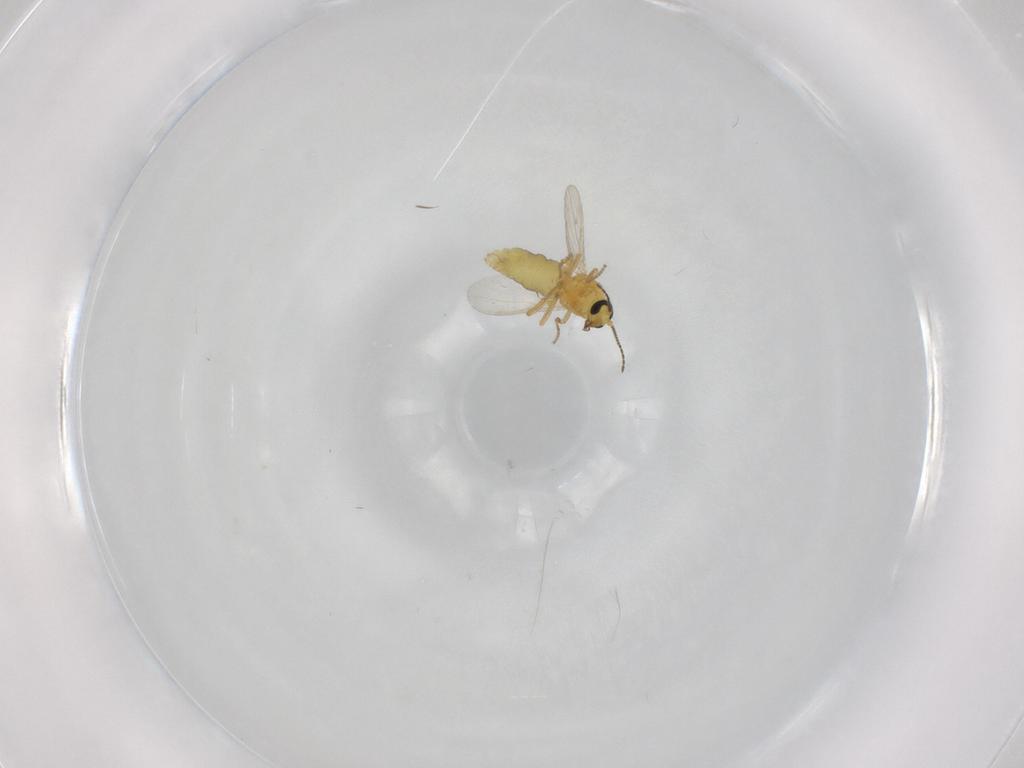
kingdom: Animalia
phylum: Arthropoda
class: Insecta
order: Diptera
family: Ceratopogonidae
